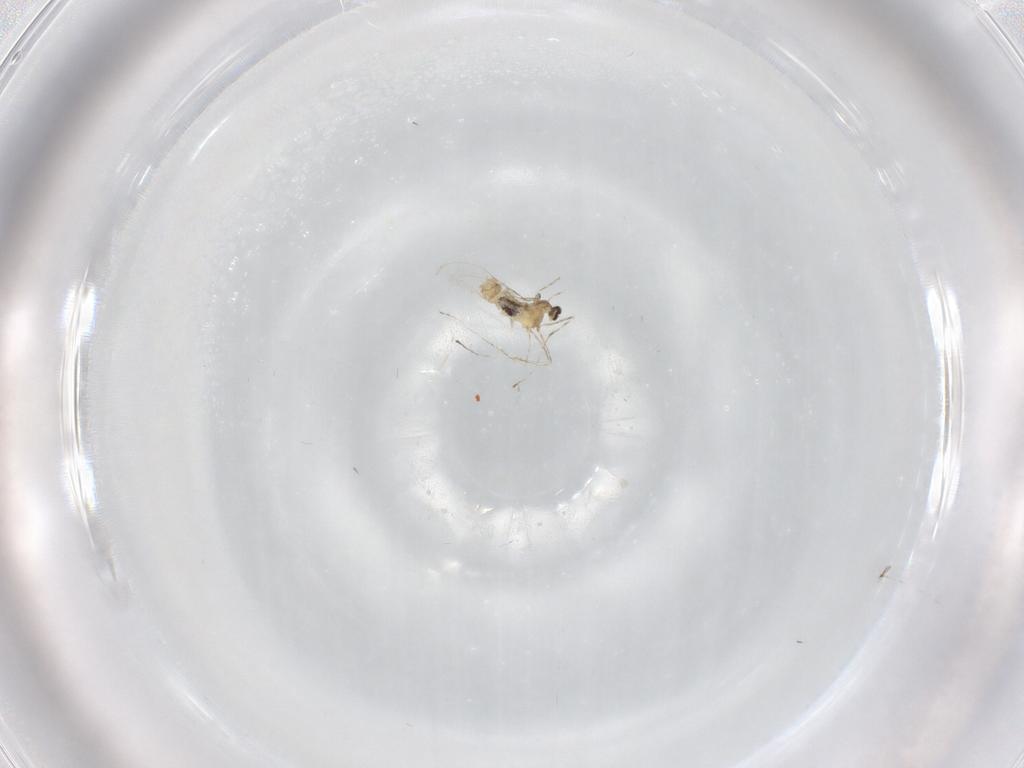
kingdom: Animalia
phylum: Arthropoda
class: Insecta
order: Diptera
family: Cecidomyiidae
